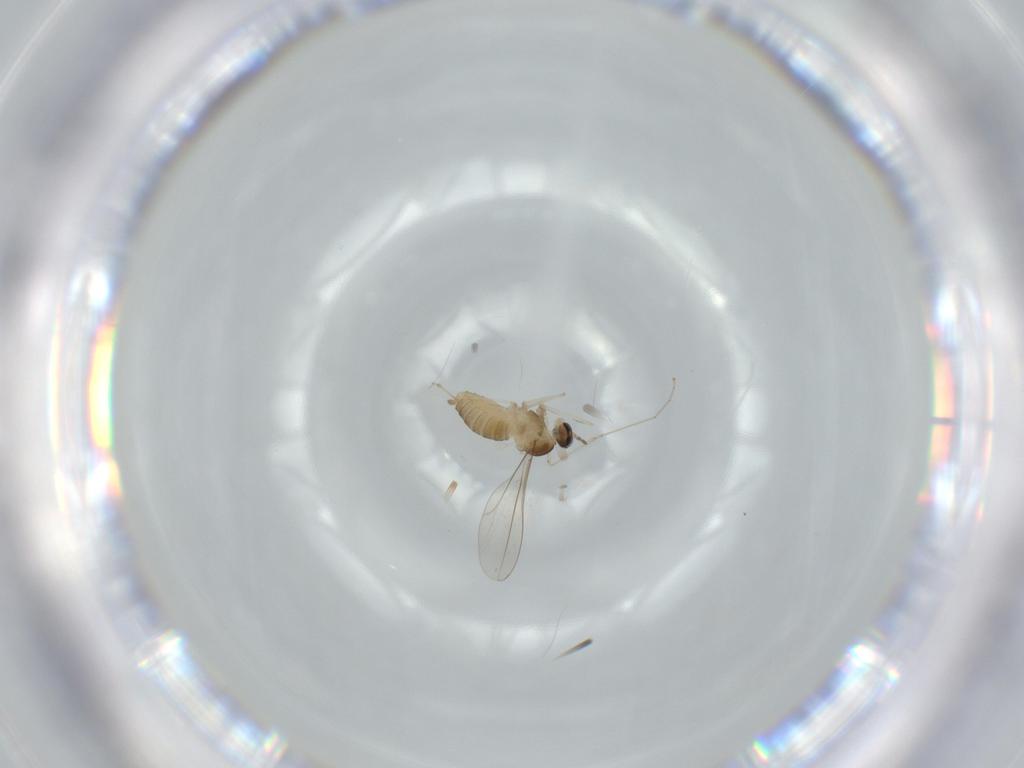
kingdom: Animalia
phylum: Arthropoda
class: Insecta
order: Diptera
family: Cecidomyiidae
